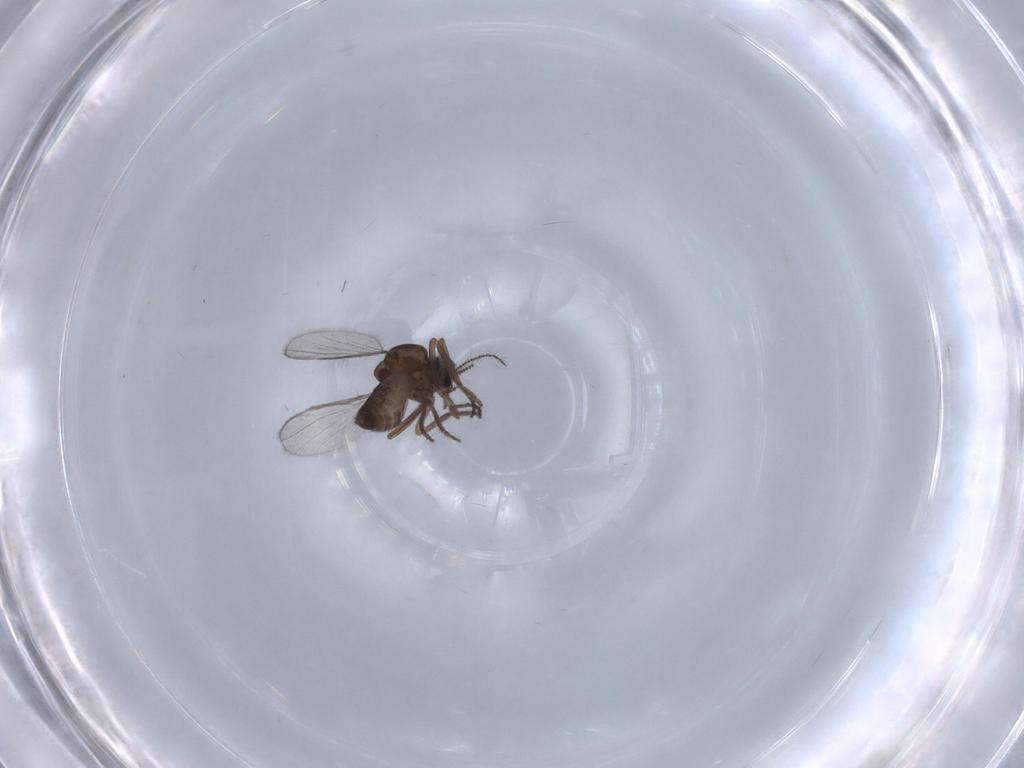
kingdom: Animalia
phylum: Arthropoda
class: Insecta
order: Diptera
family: Ceratopogonidae
